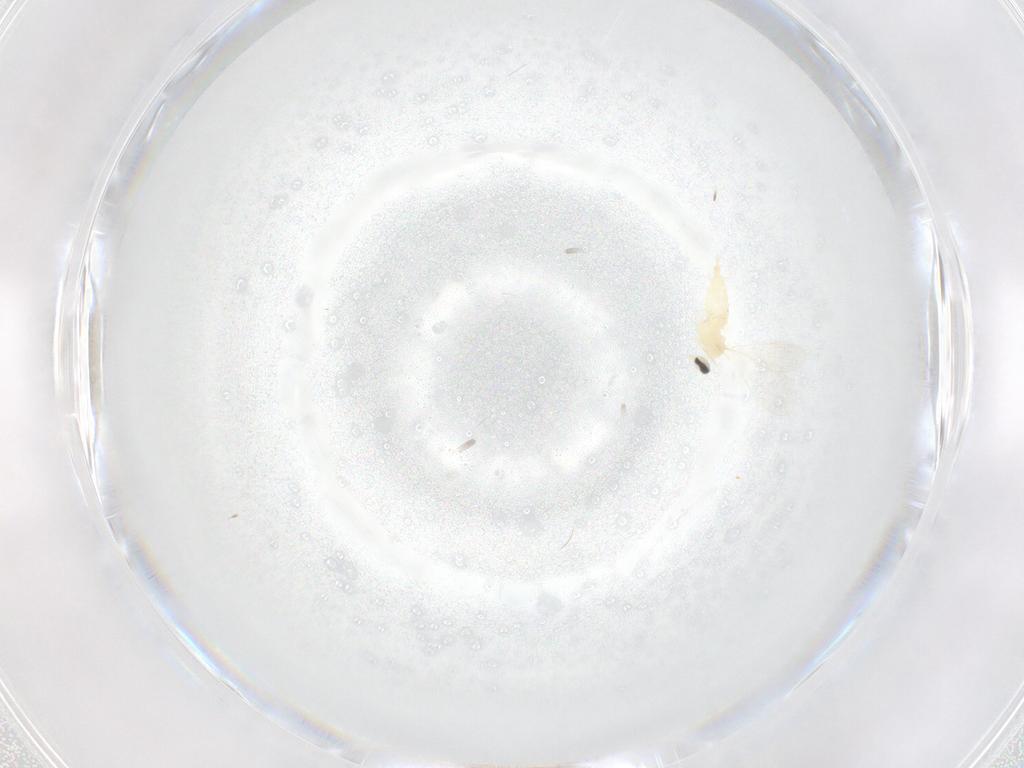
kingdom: Animalia
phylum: Arthropoda
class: Insecta
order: Diptera
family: Cecidomyiidae
